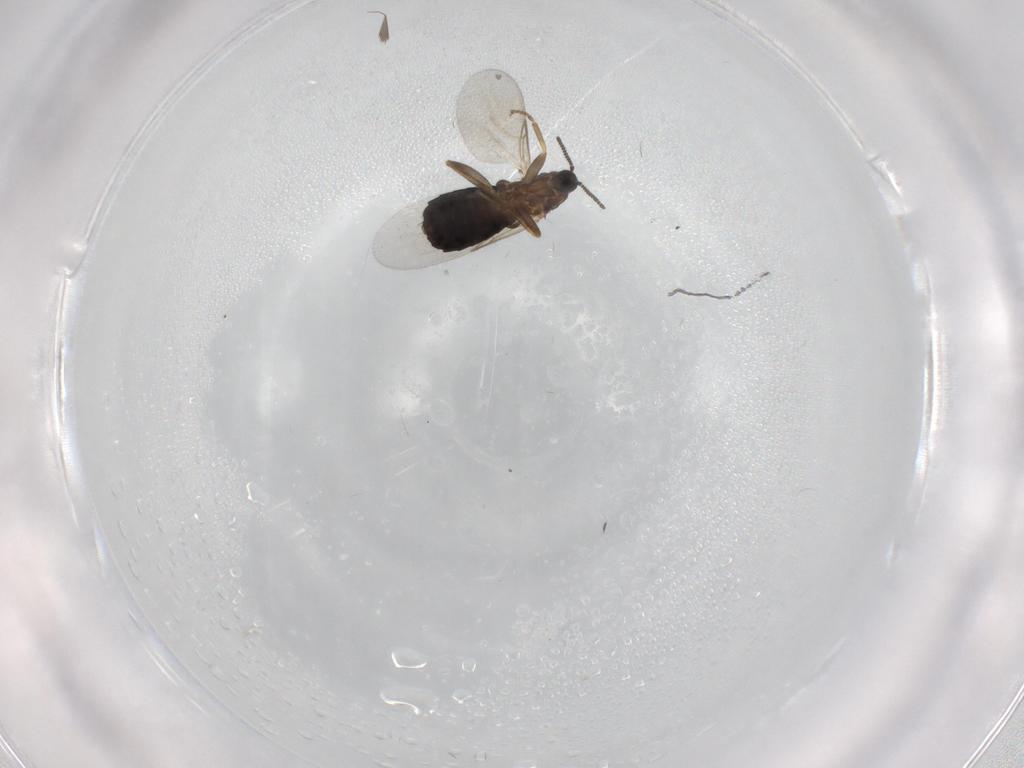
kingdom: Animalia
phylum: Arthropoda
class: Insecta
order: Diptera
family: Scatopsidae
